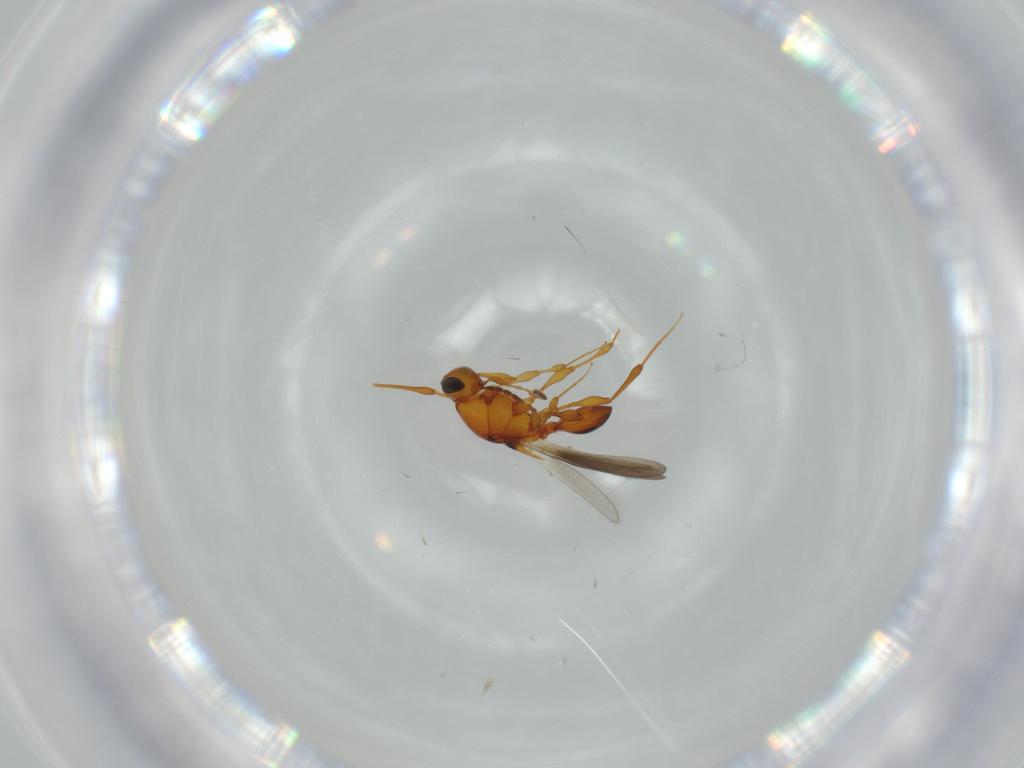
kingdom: Animalia
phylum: Arthropoda
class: Insecta
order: Hymenoptera
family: Platygastridae
